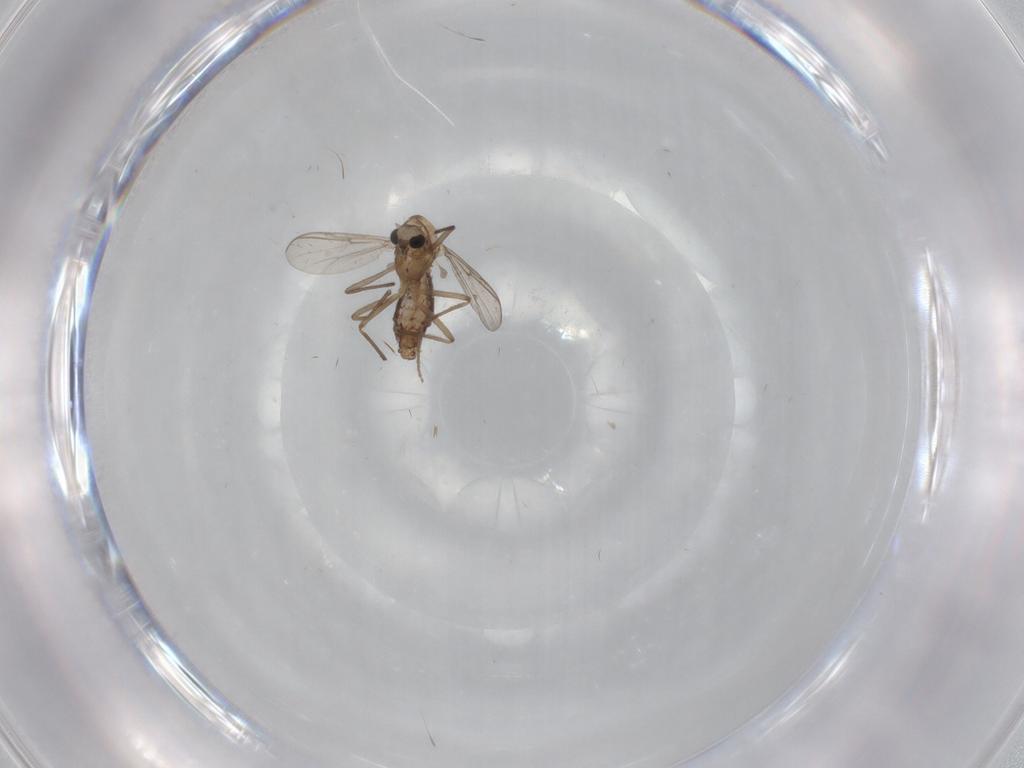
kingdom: Animalia
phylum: Arthropoda
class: Insecta
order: Diptera
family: Chironomidae
